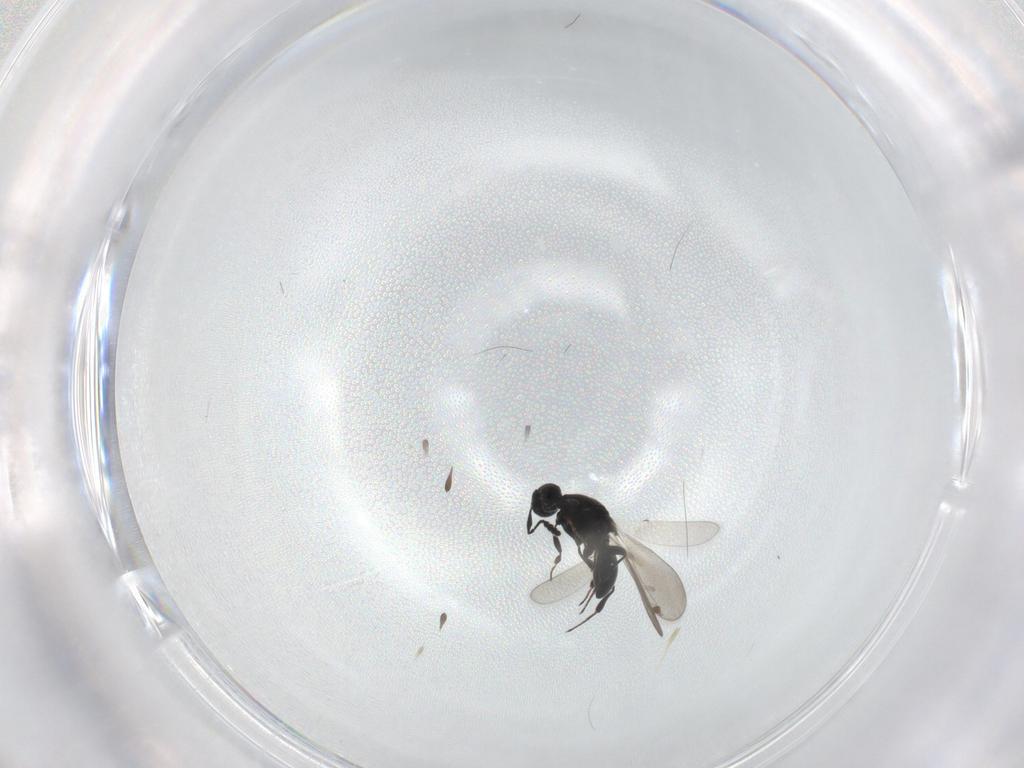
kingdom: Animalia
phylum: Arthropoda
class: Insecta
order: Hymenoptera
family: Platygastridae
